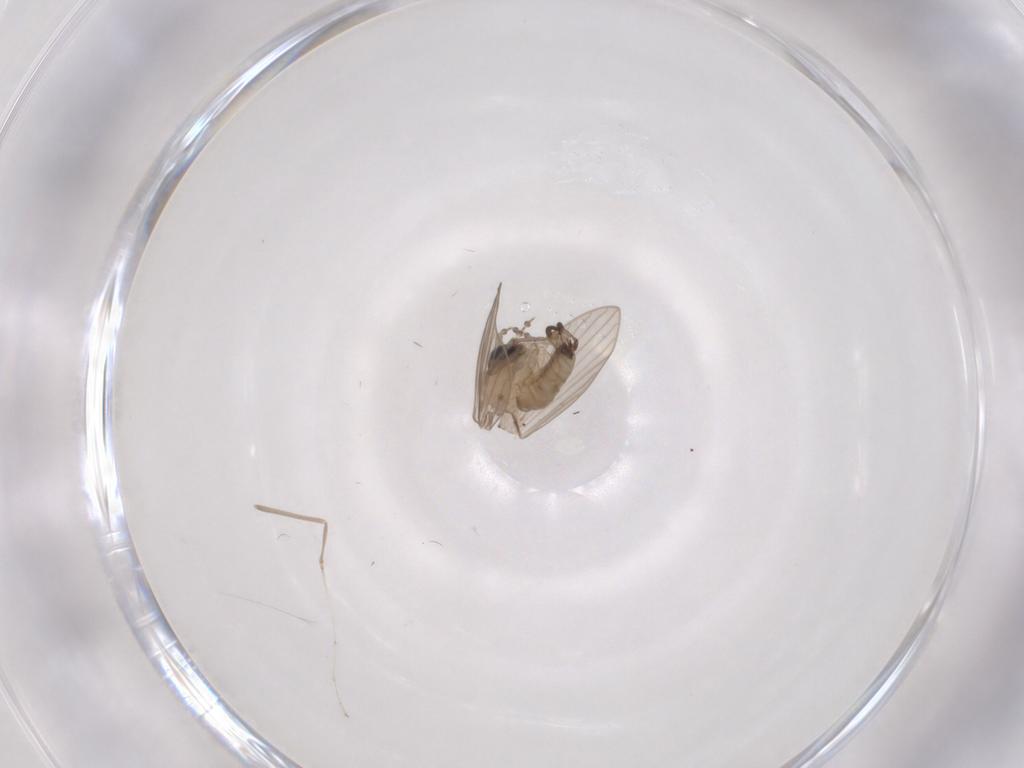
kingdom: Animalia
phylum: Arthropoda
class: Insecta
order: Diptera
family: Psychodidae
